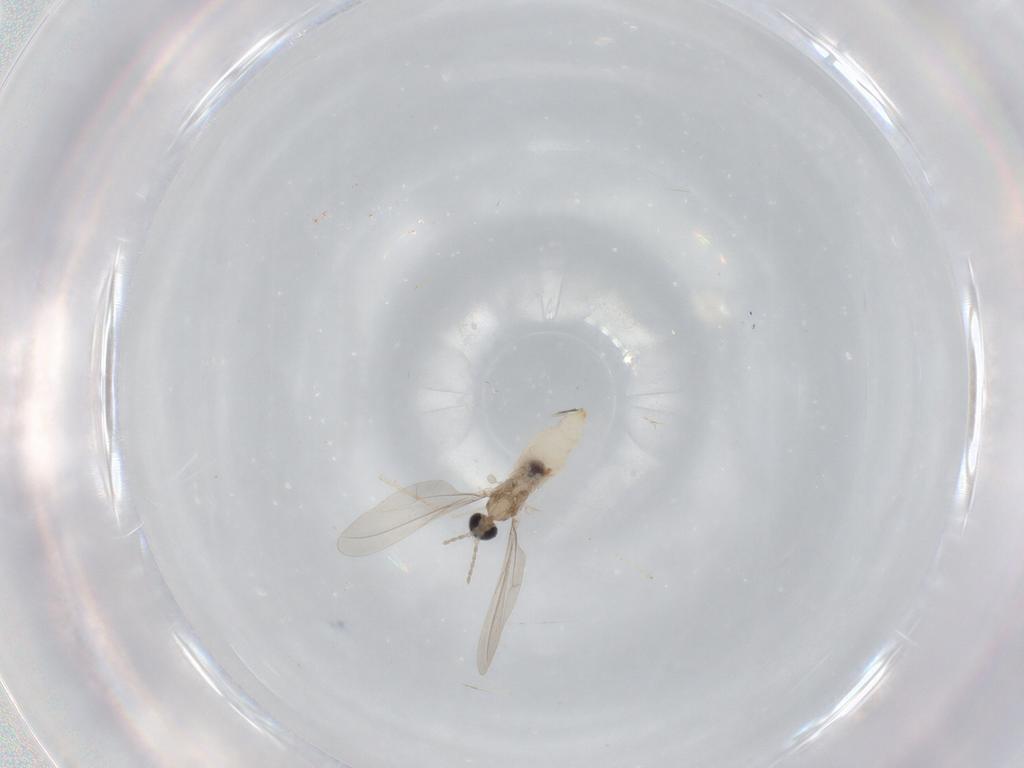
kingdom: Animalia
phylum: Arthropoda
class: Insecta
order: Diptera
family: Cecidomyiidae
